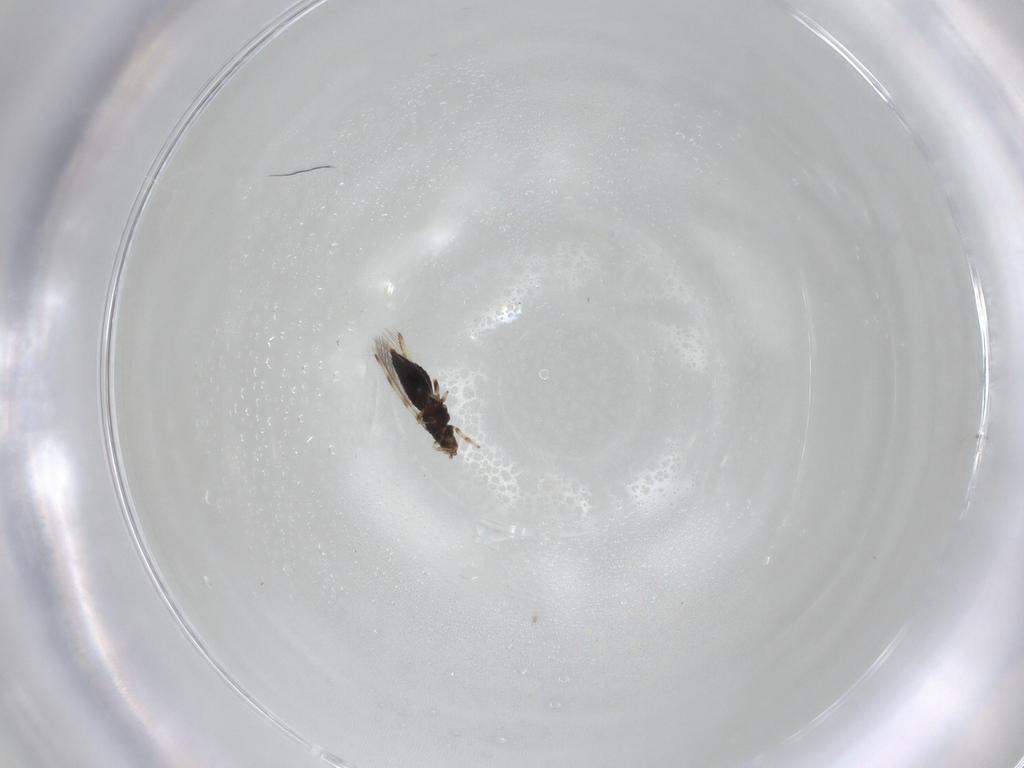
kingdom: Animalia
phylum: Arthropoda
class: Insecta
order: Thysanoptera
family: Thripidae
